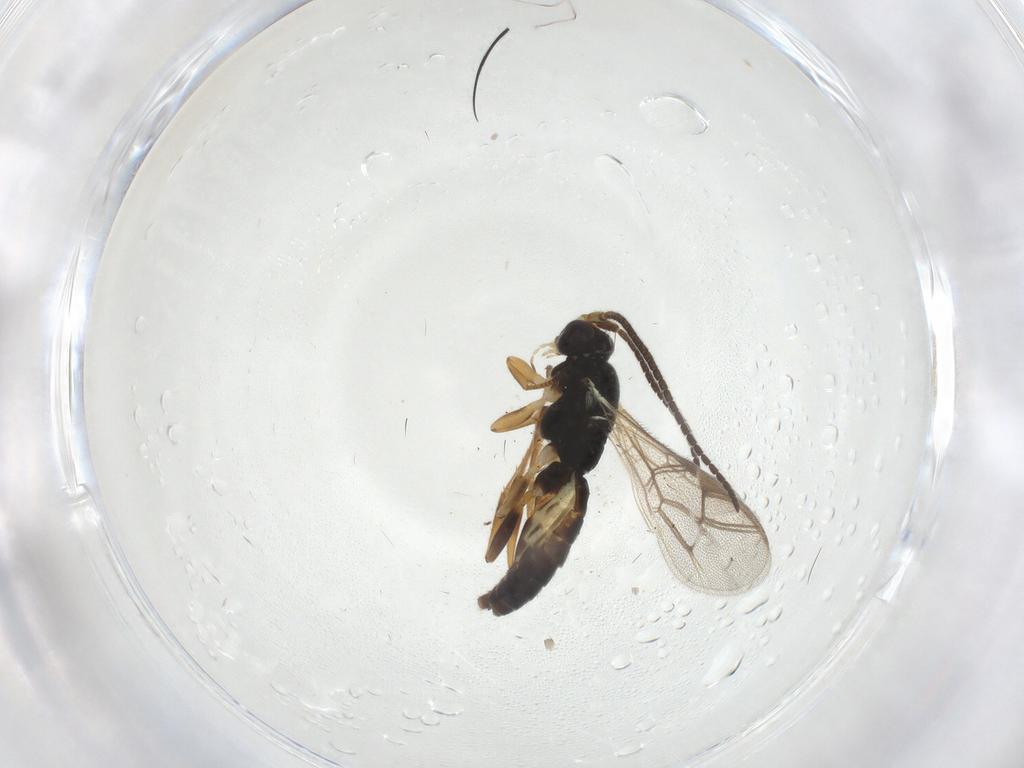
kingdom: Animalia
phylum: Arthropoda
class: Insecta
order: Hymenoptera
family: Ichneumonidae
